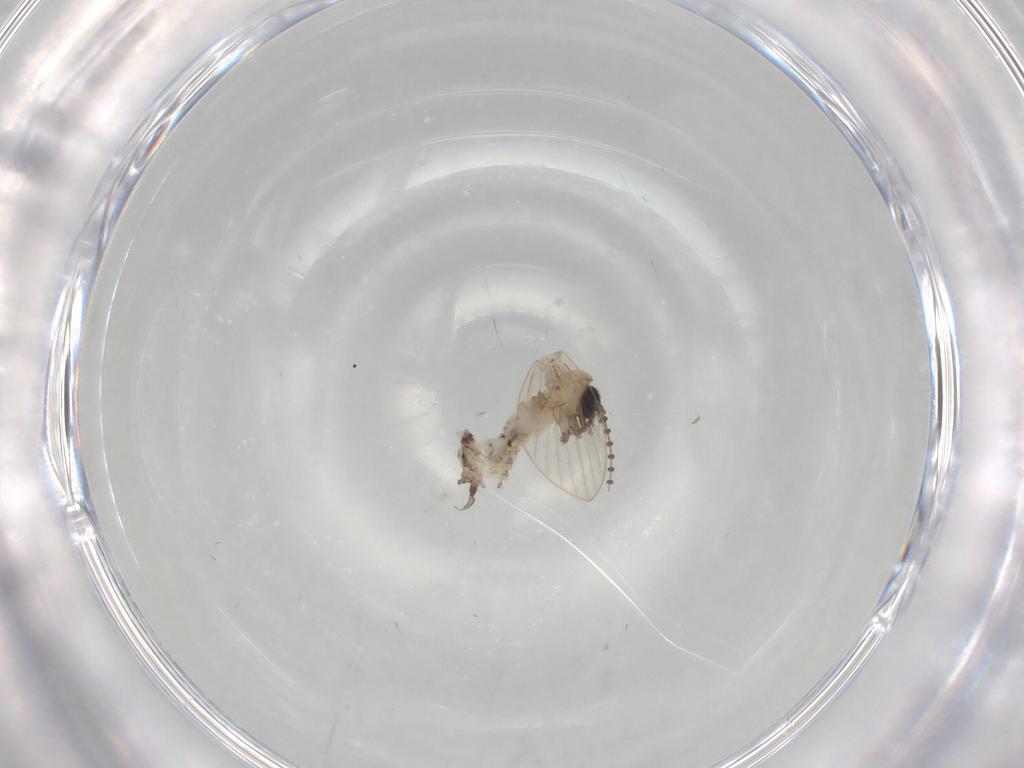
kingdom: Animalia
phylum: Arthropoda
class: Insecta
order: Diptera
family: Psychodidae
